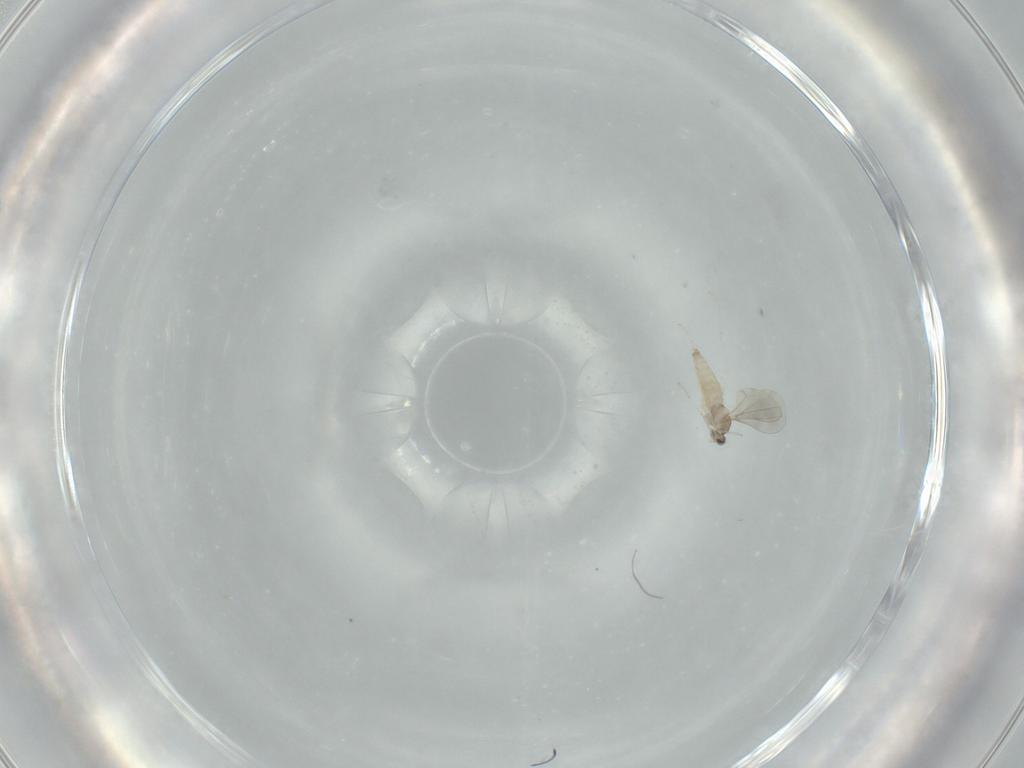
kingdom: Animalia
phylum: Arthropoda
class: Insecta
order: Diptera
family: Cecidomyiidae
